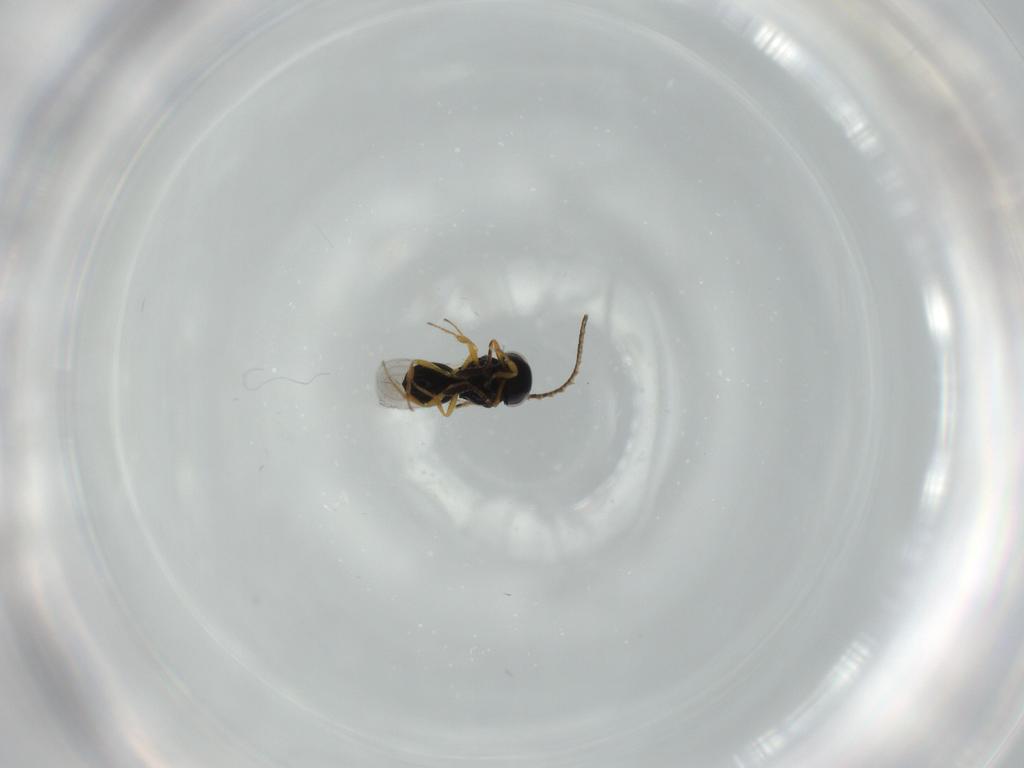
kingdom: Animalia
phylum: Arthropoda
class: Insecta
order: Hymenoptera
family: Scelionidae
